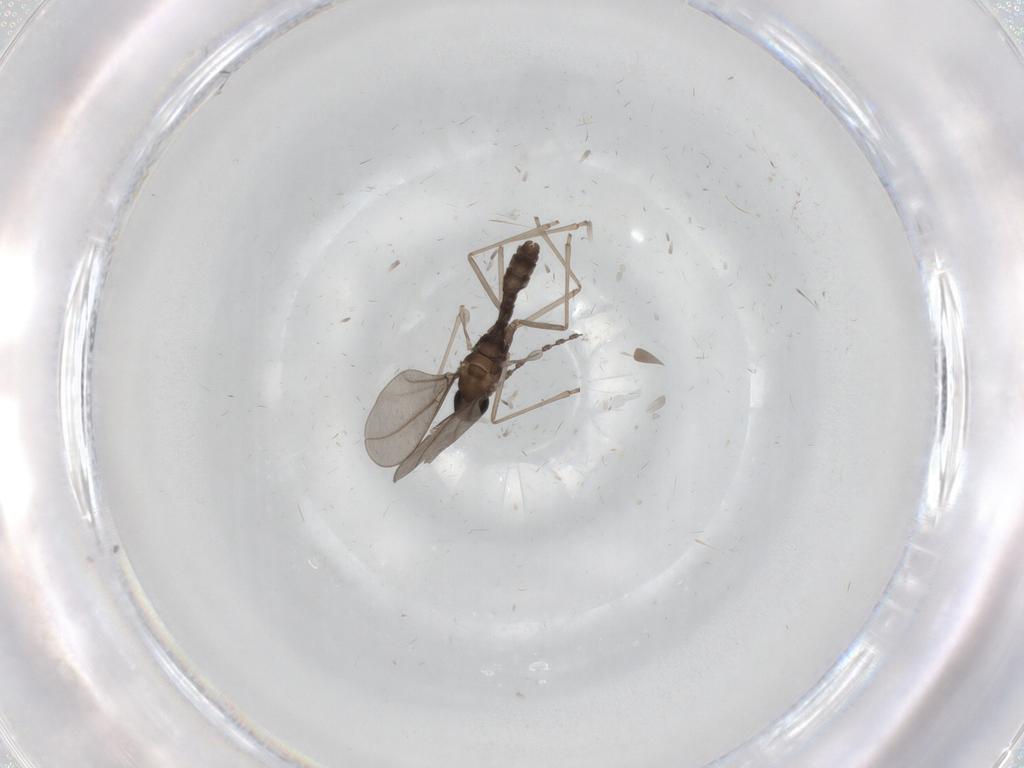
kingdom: Animalia
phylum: Arthropoda
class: Insecta
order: Diptera
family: Cecidomyiidae
